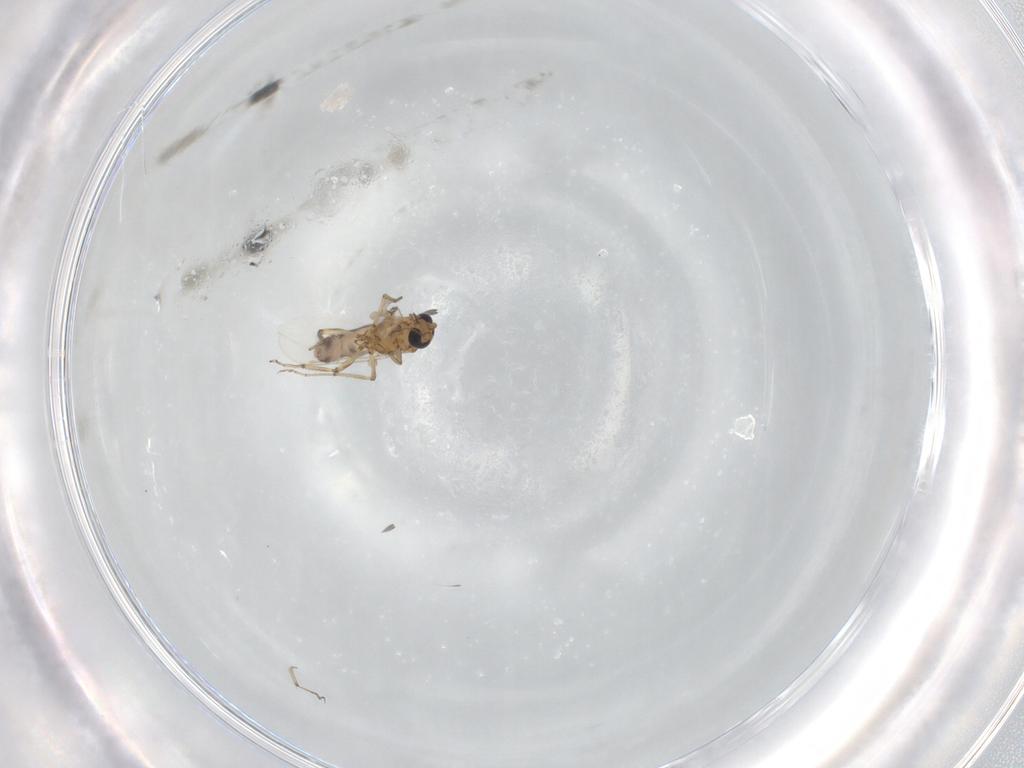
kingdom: Animalia
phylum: Arthropoda
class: Insecta
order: Diptera
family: Ceratopogonidae
